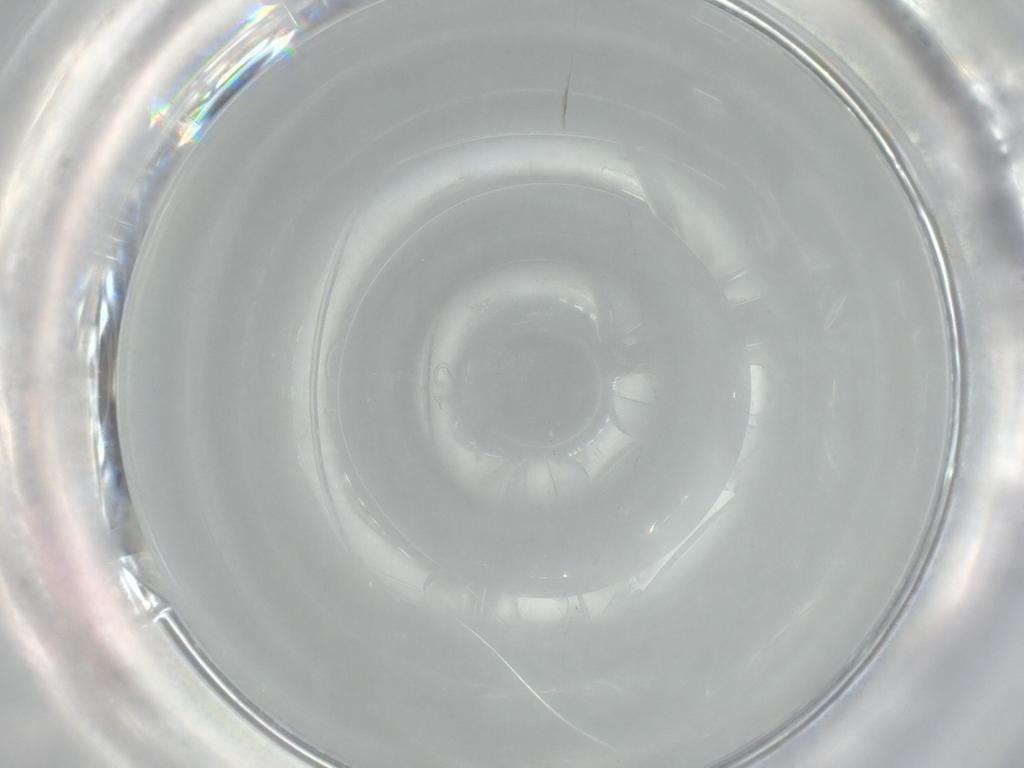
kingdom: Animalia
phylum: Arthropoda
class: Insecta
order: Diptera
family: Phoridae
